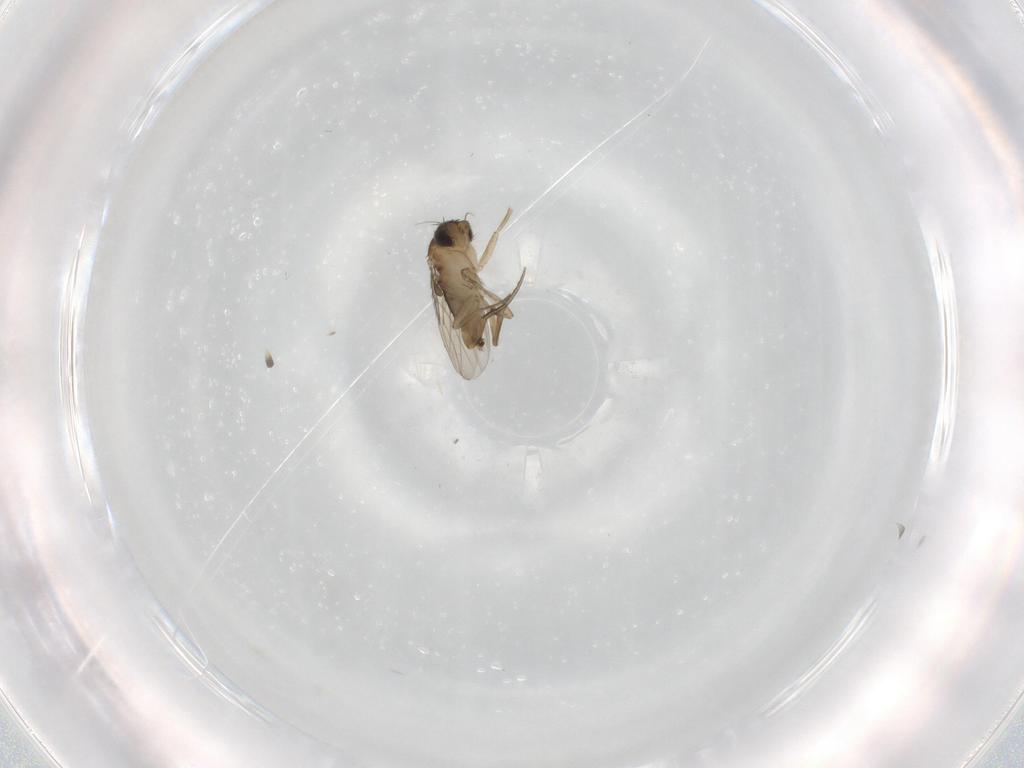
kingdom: Animalia
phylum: Arthropoda
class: Insecta
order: Diptera
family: Phoridae
